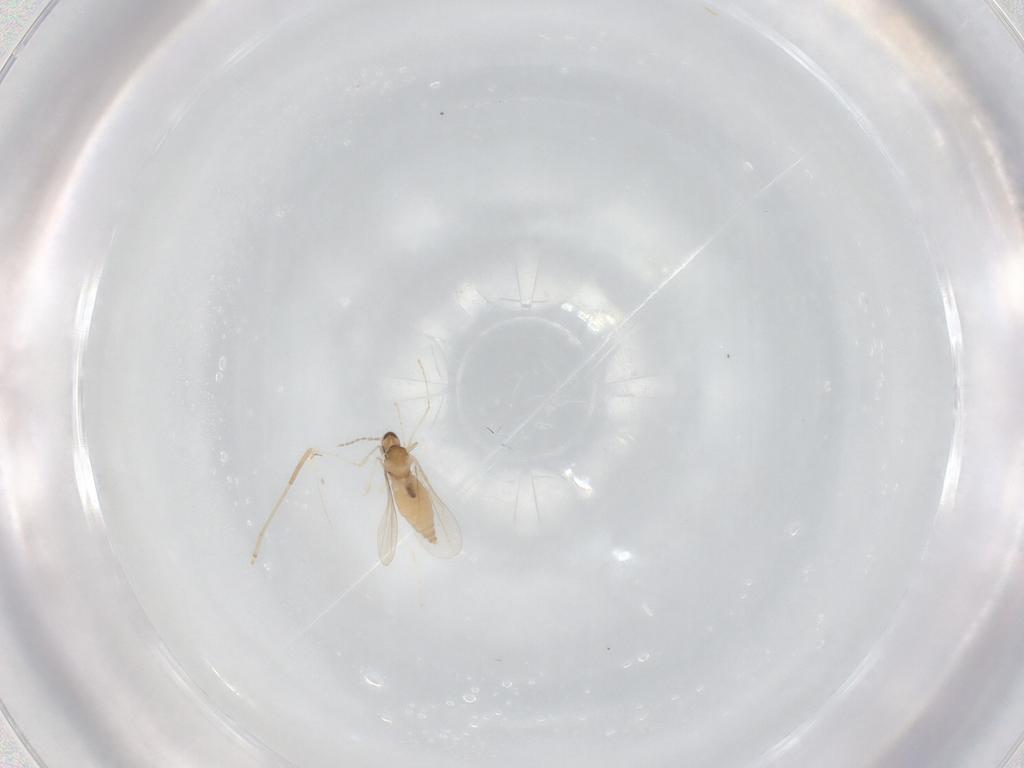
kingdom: Animalia
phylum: Arthropoda
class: Insecta
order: Diptera
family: Cecidomyiidae
